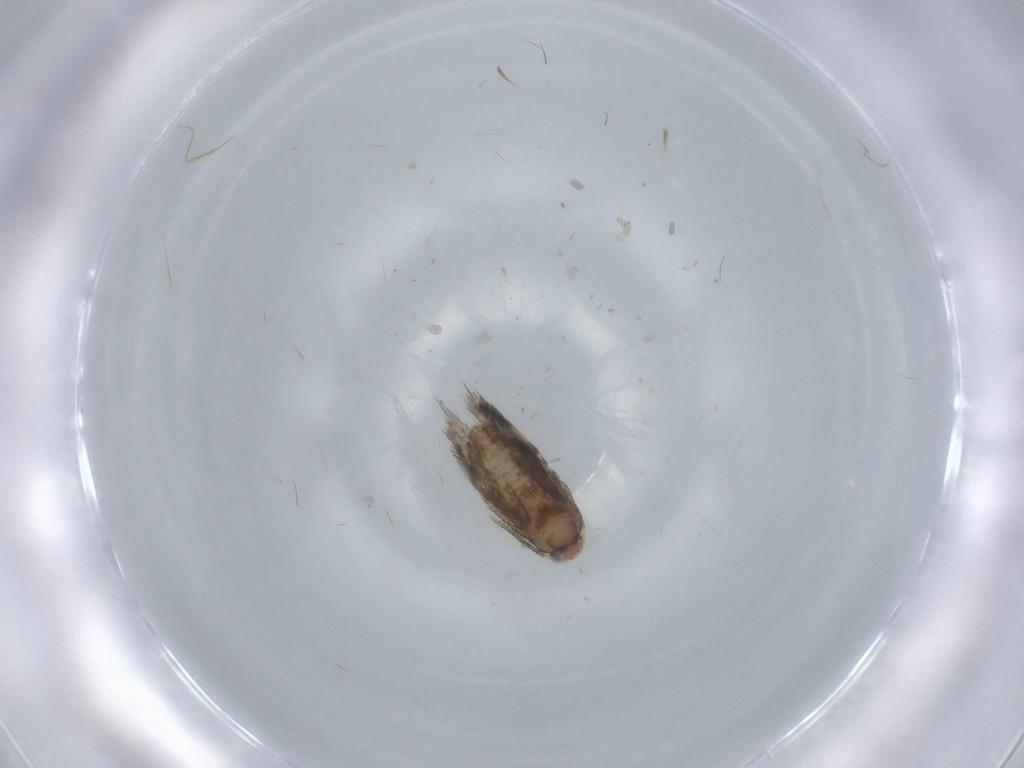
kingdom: Animalia
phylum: Arthropoda
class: Insecta
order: Lepidoptera
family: Nepticulidae
